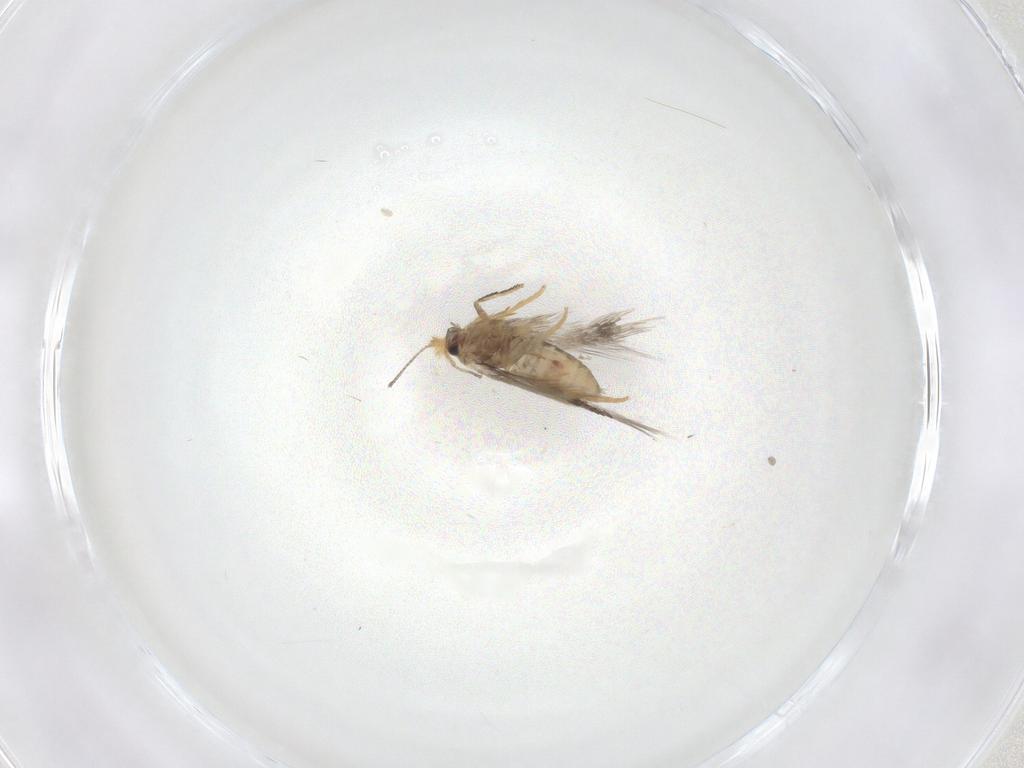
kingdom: Animalia
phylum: Arthropoda
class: Insecta
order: Lepidoptera
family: Nepticulidae
